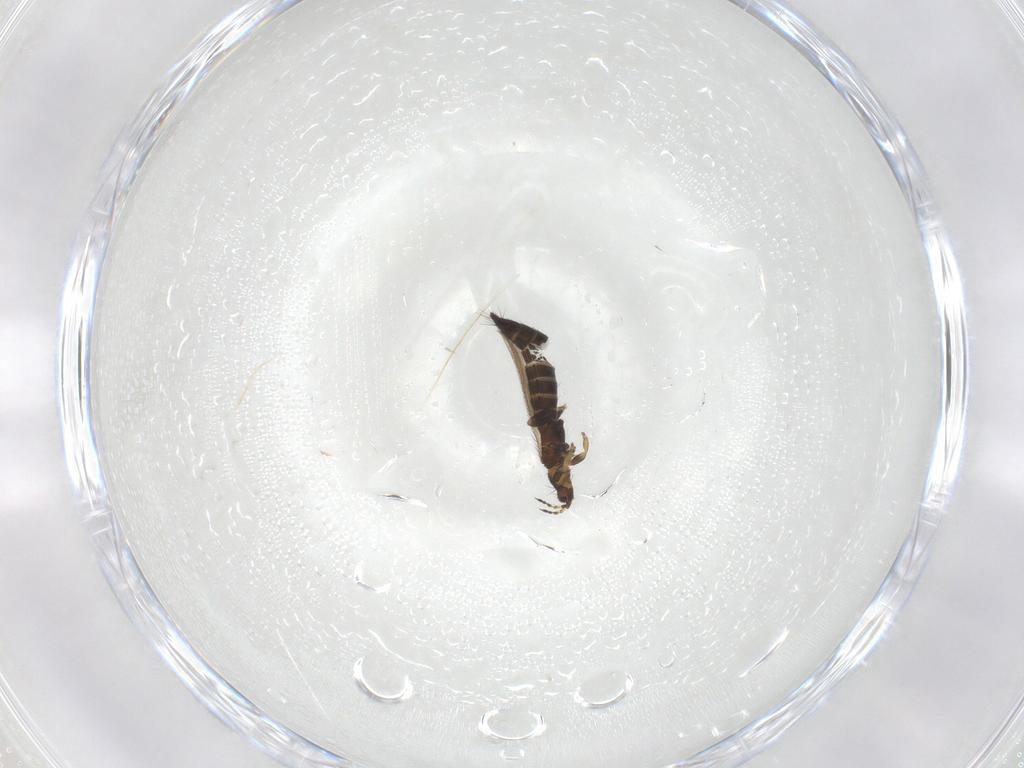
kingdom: Animalia
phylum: Arthropoda
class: Insecta
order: Thysanoptera
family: Thripidae
